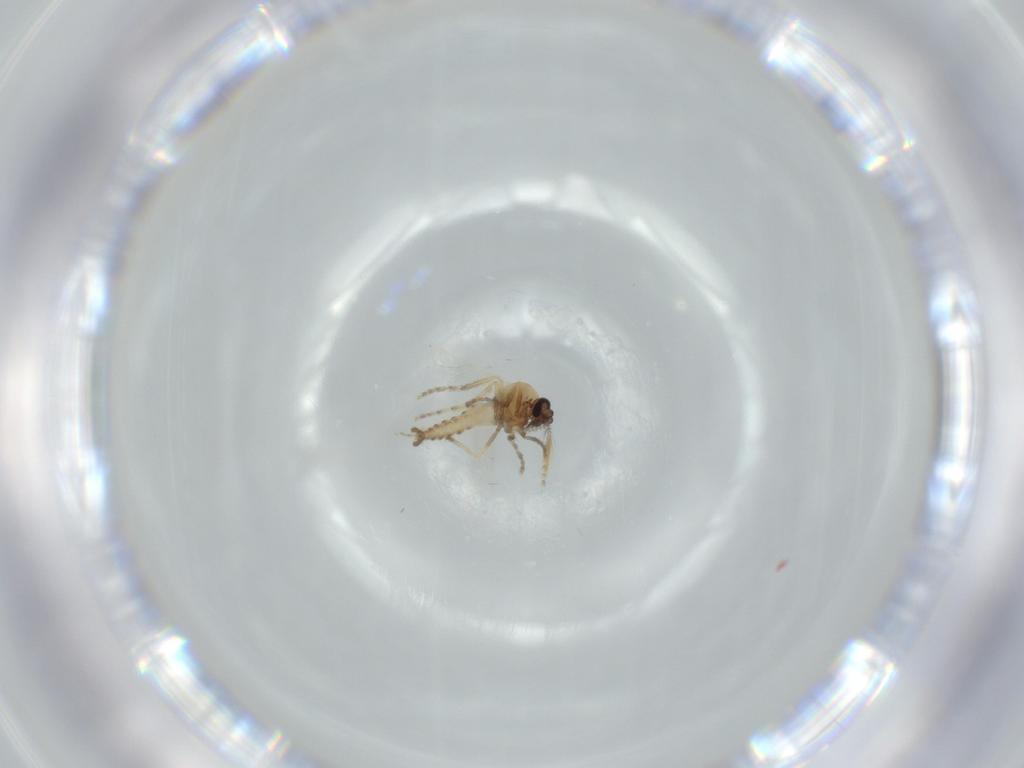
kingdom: Animalia
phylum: Arthropoda
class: Insecta
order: Diptera
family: Ceratopogonidae
